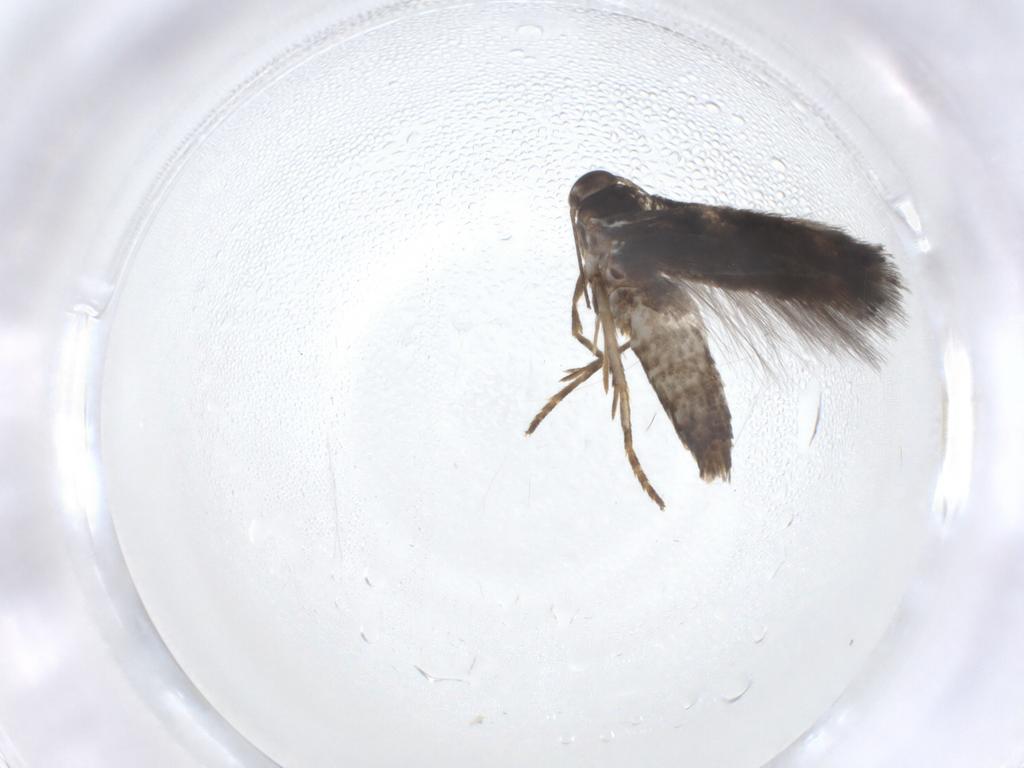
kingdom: Animalia
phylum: Arthropoda
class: Insecta
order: Lepidoptera
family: Elachistidae
